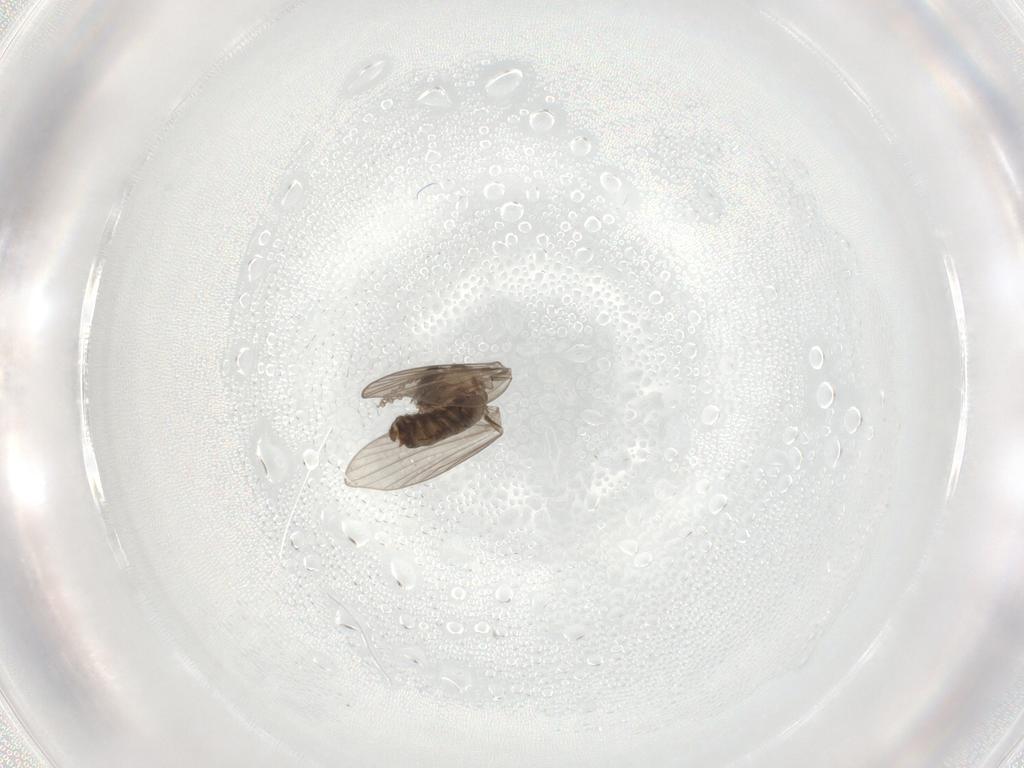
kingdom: Animalia
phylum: Arthropoda
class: Insecta
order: Diptera
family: Psychodidae
